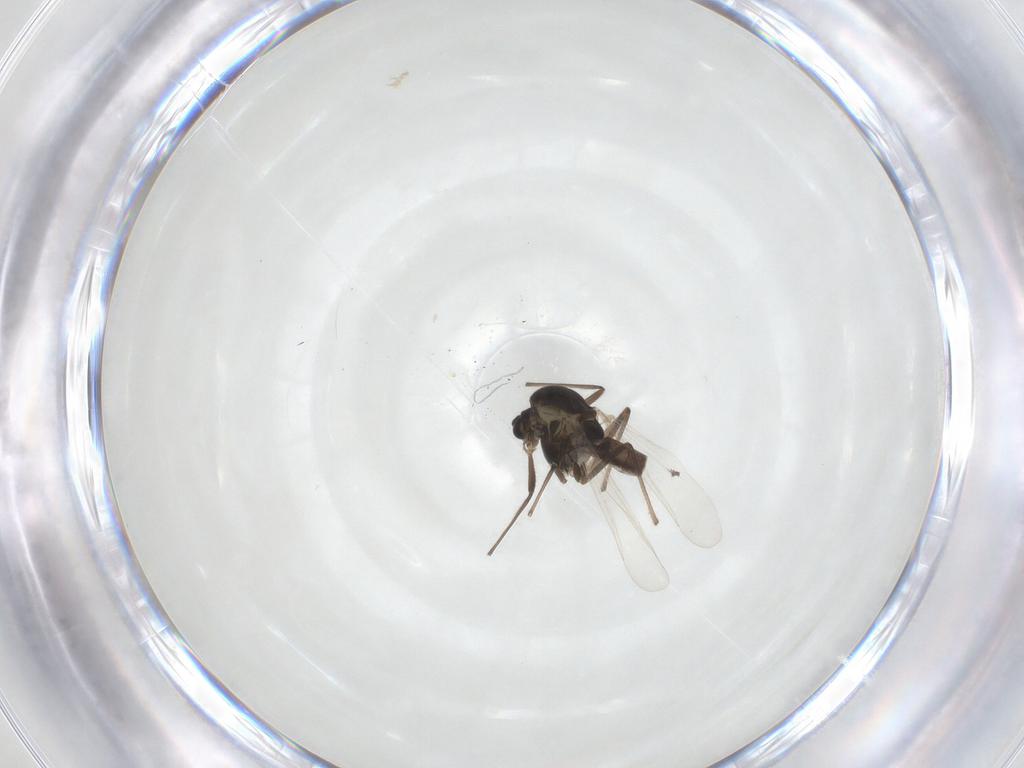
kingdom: Animalia
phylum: Arthropoda
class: Insecta
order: Diptera
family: Chironomidae
